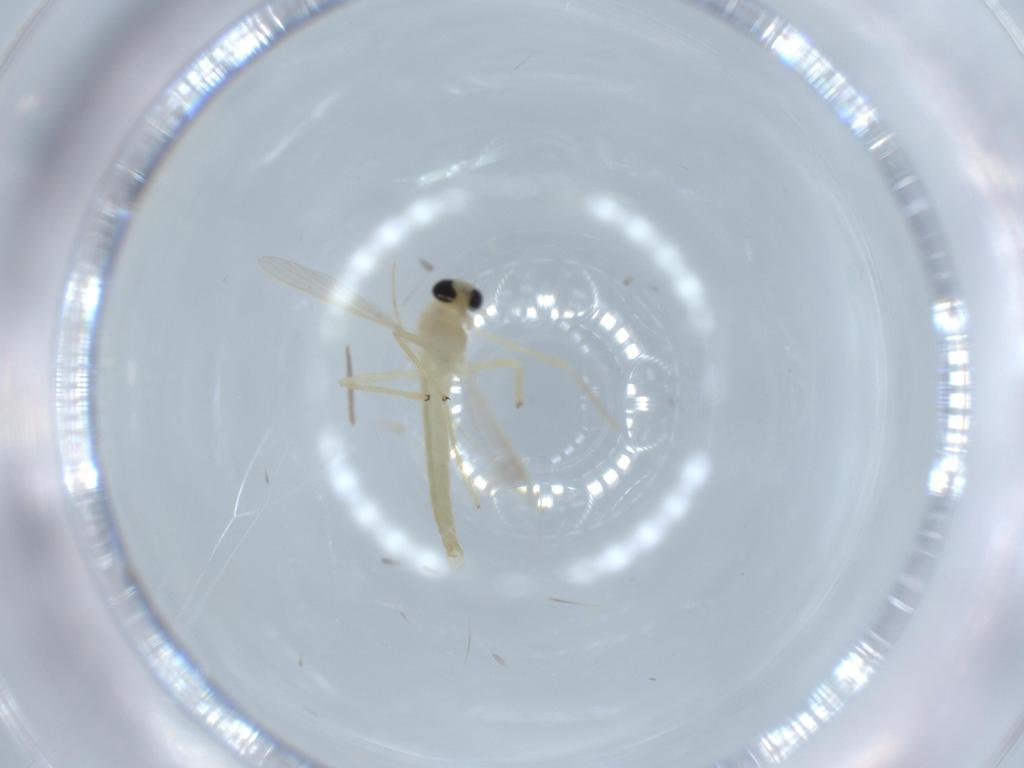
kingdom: Animalia
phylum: Arthropoda
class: Insecta
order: Diptera
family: Chironomidae
